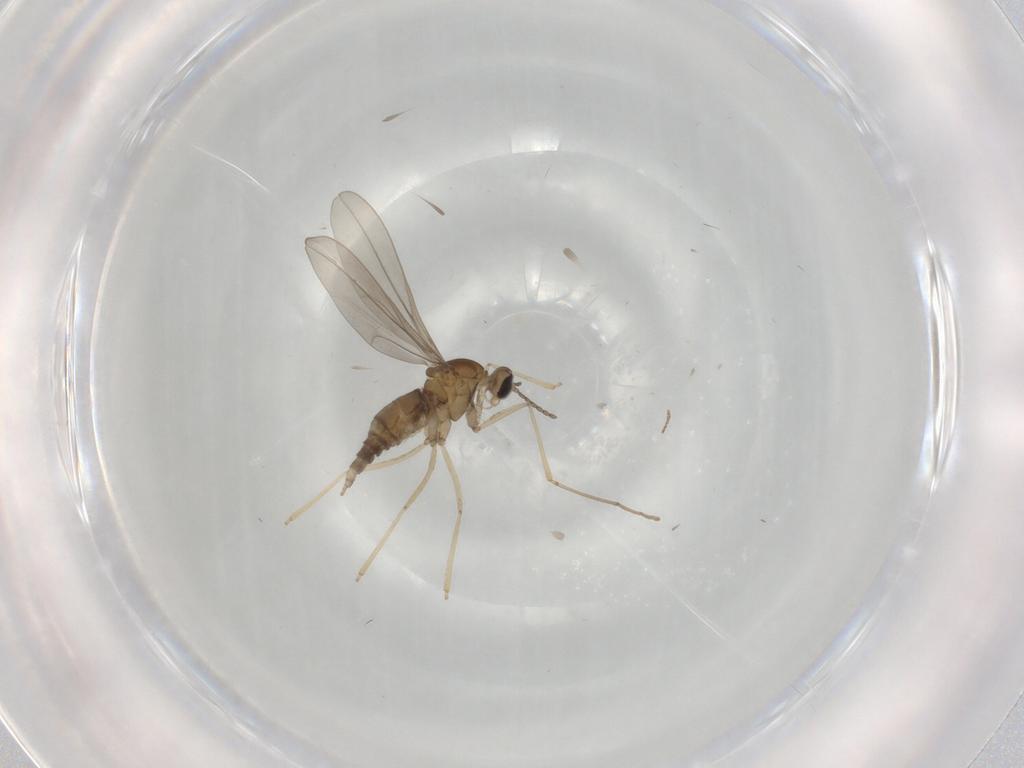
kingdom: Animalia
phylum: Arthropoda
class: Insecta
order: Diptera
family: Cecidomyiidae
